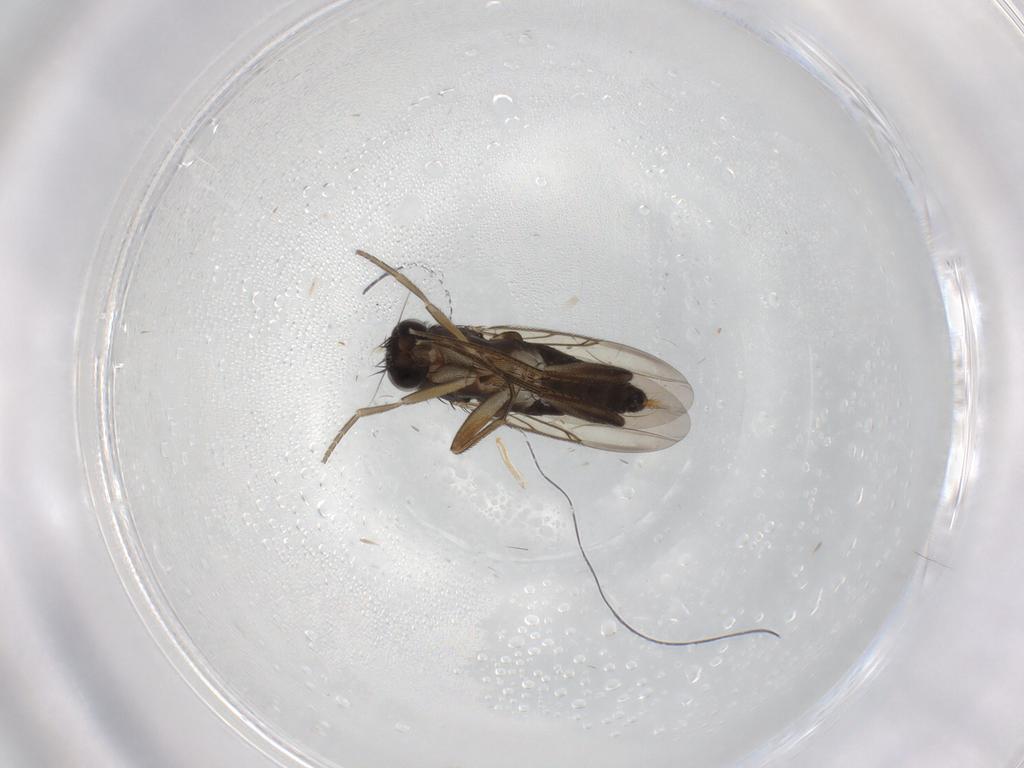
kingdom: Animalia
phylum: Arthropoda
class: Insecta
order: Diptera
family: Phoridae
